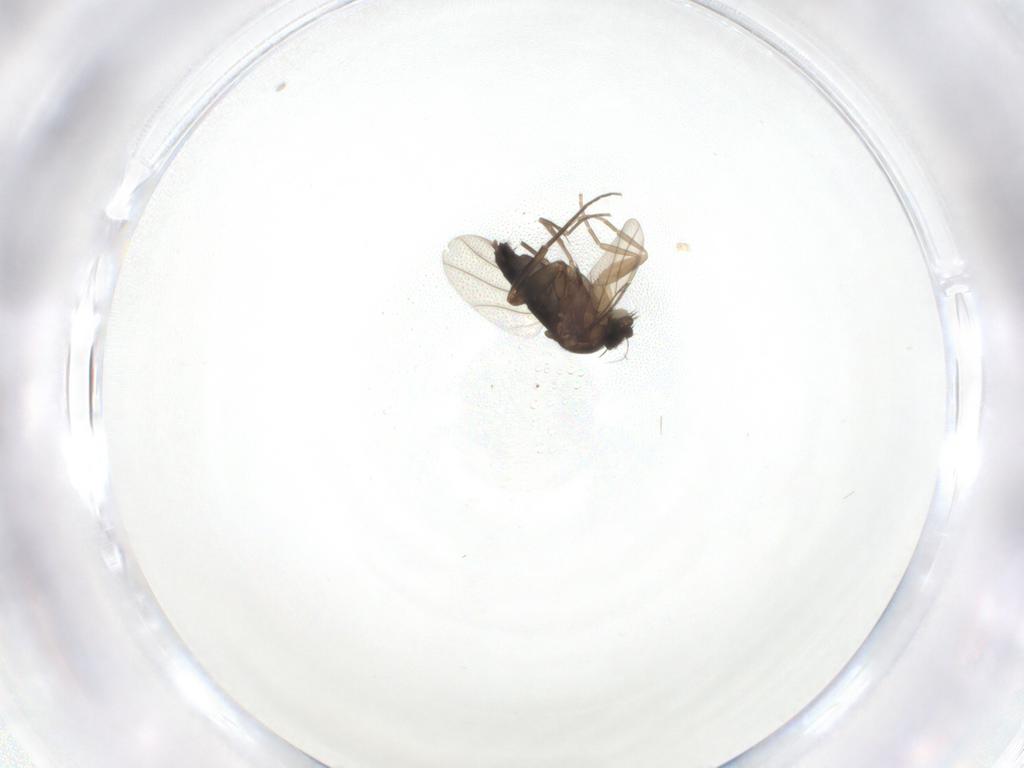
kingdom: Animalia
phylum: Arthropoda
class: Insecta
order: Diptera
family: Phoridae
